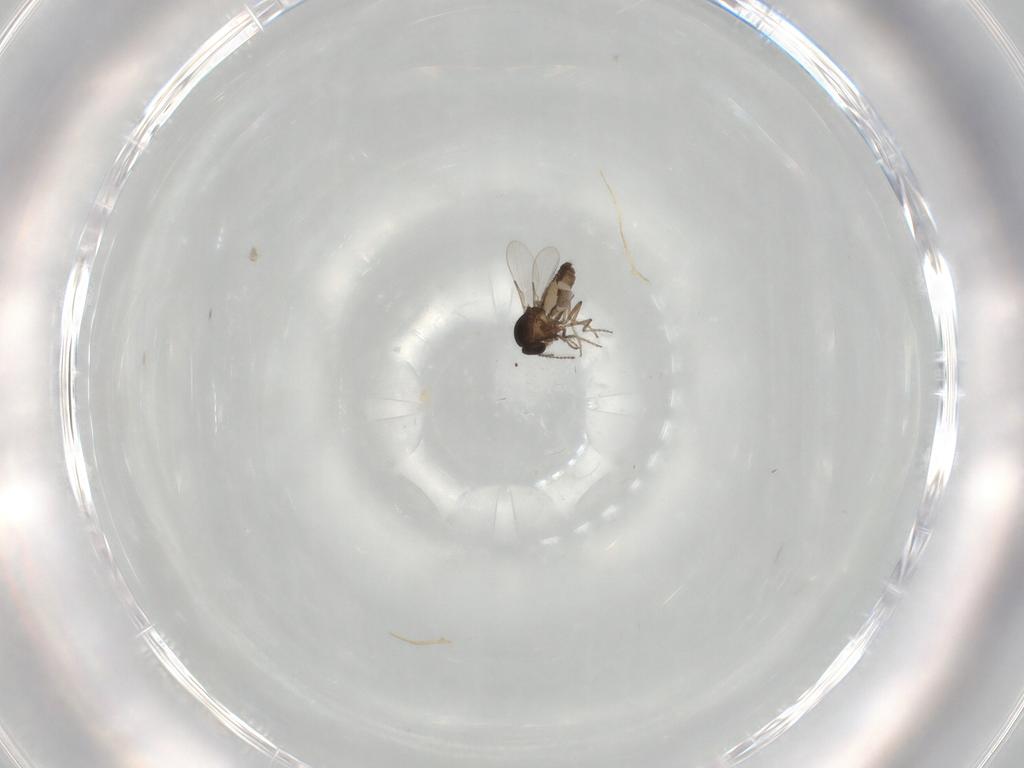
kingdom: Animalia
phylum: Arthropoda
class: Insecta
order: Diptera
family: Ceratopogonidae
